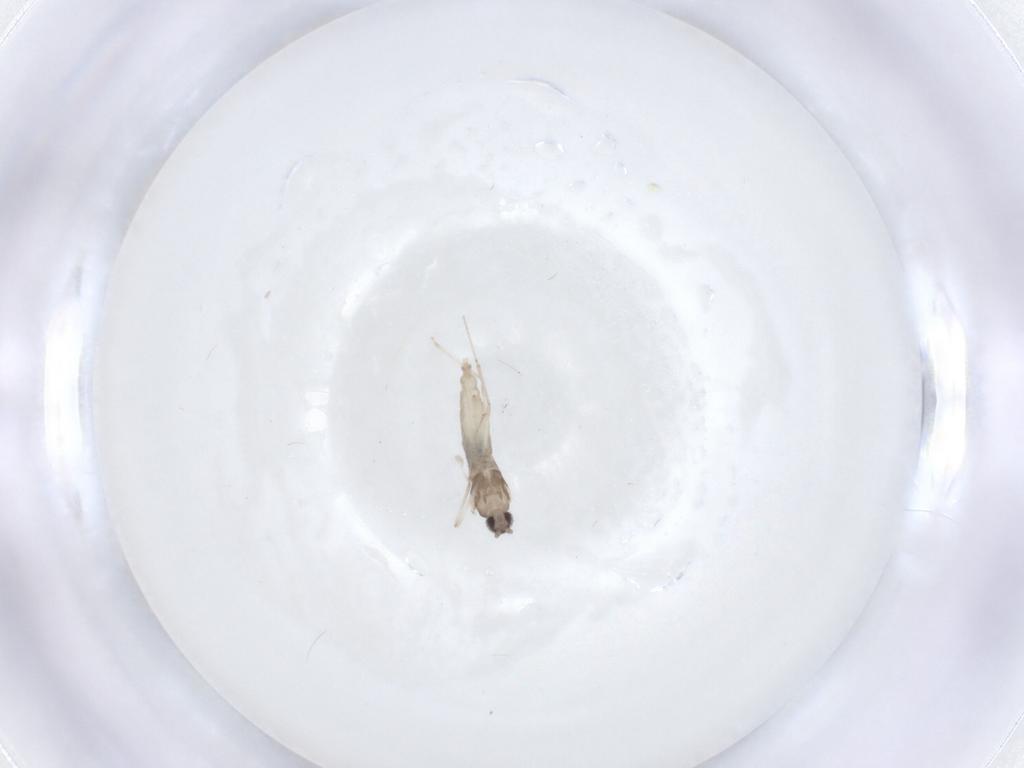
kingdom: Animalia
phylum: Arthropoda
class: Insecta
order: Diptera
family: Cecidomyiidae
